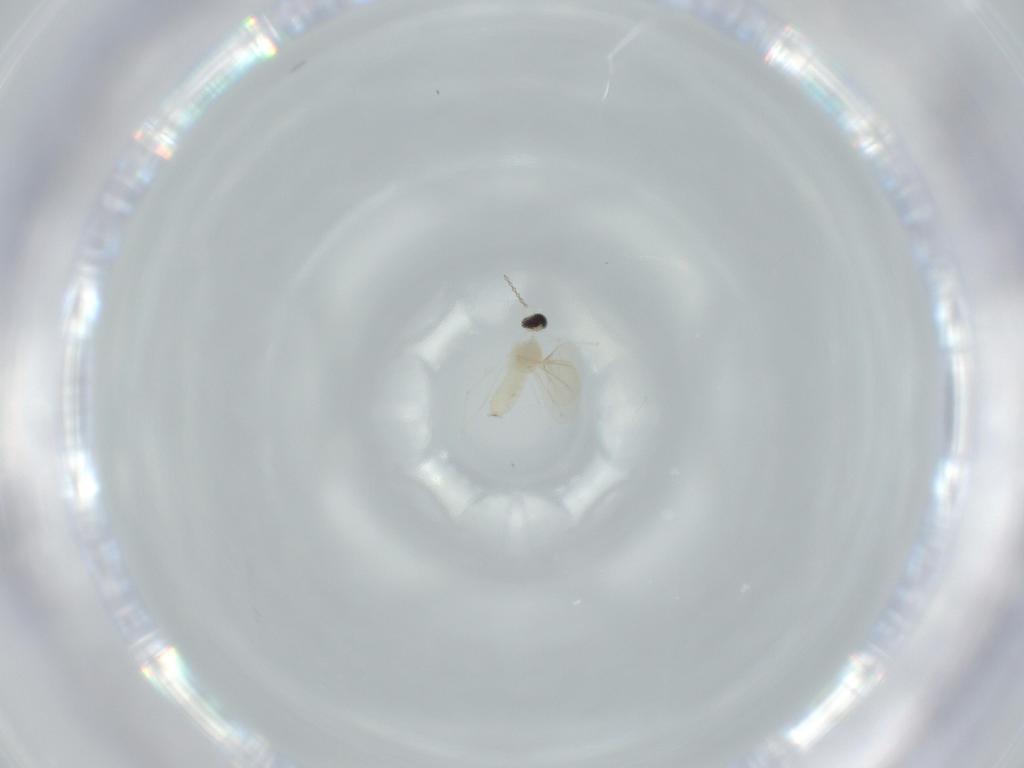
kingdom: Animalia
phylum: Arthropoda
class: Insecta
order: Diptera
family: Cecidomyiidae
